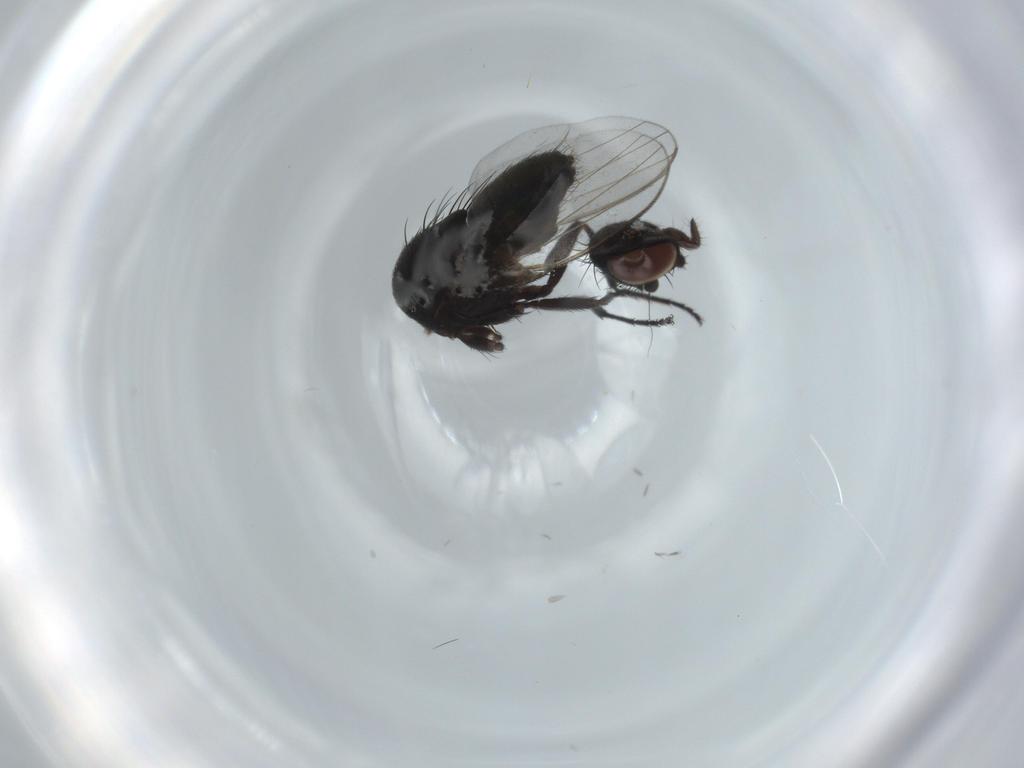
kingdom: Animalia
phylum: Arthropoda
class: Insecta
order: Diptera
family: Milichiidae
